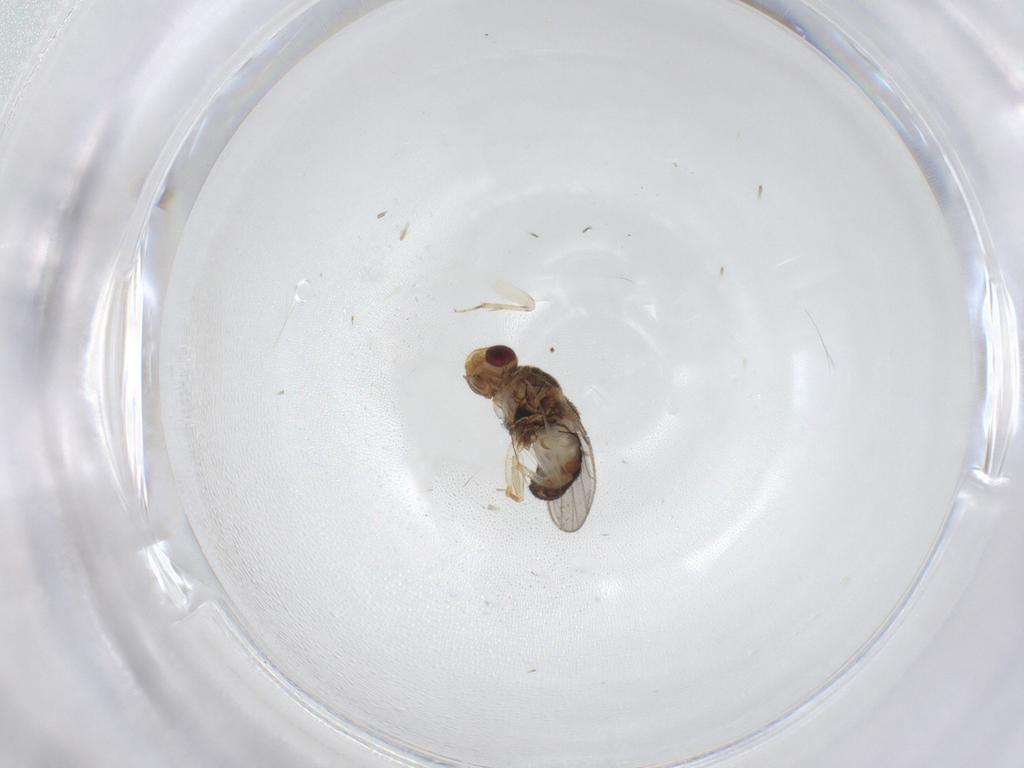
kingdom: Animalia
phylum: Arthropoda
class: Insecta
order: Diptera
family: Chloropidae
